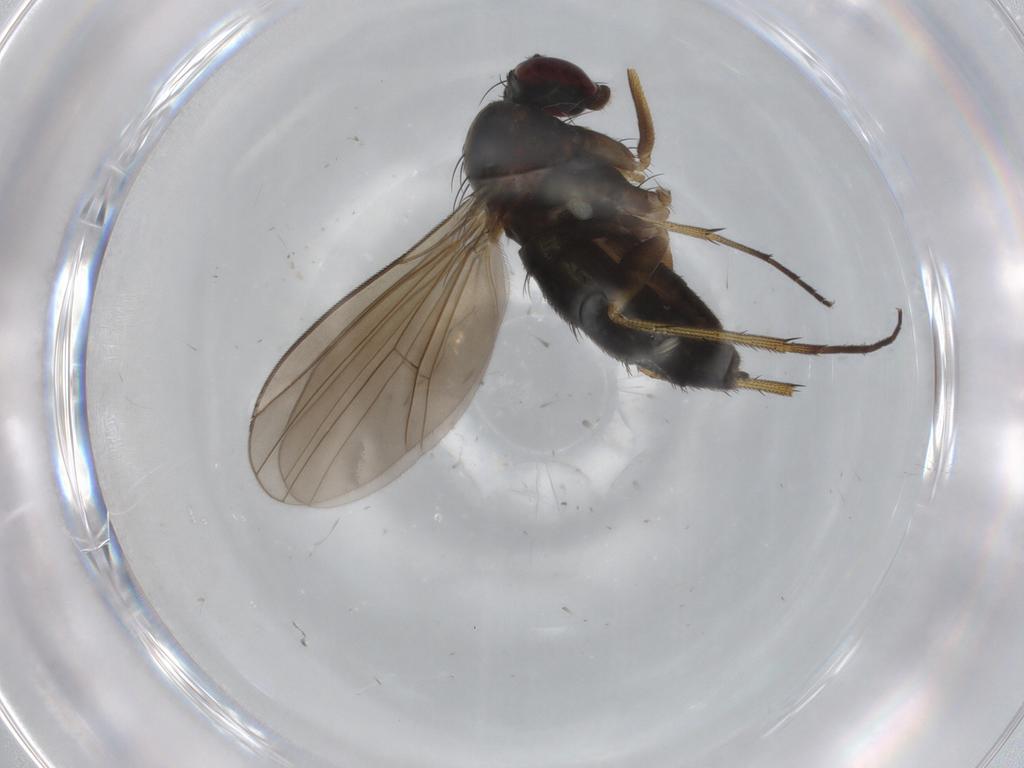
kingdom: Animalia
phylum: Arthropoda
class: Insecta
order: Diptera
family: Dolichopodidae
